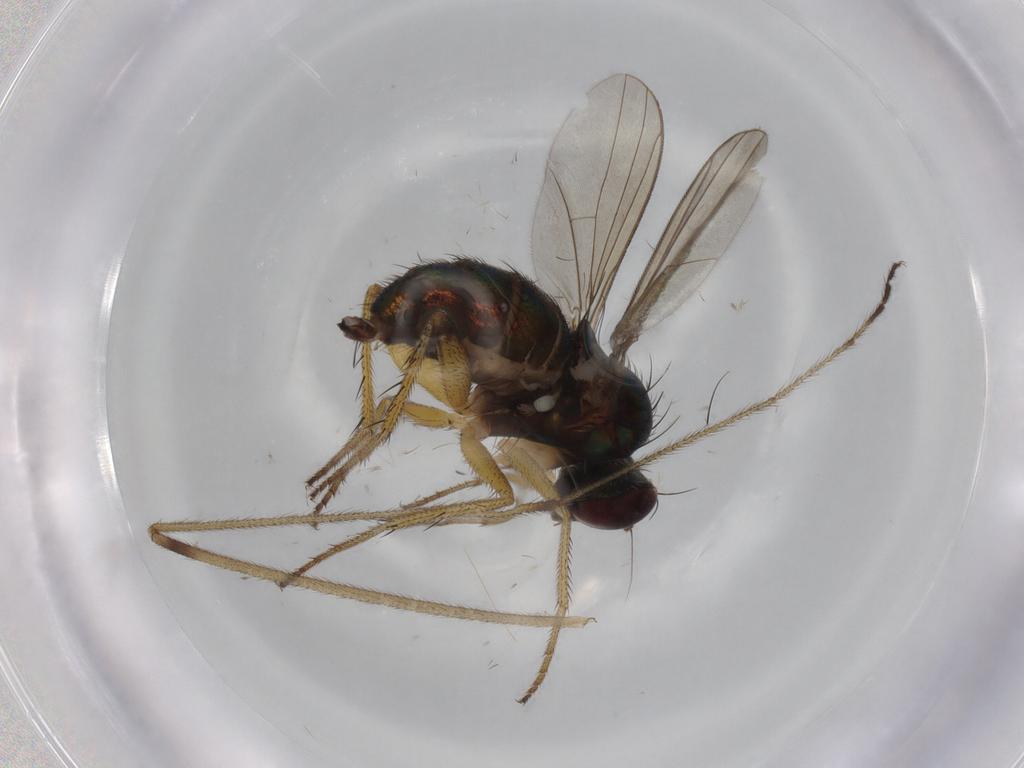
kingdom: Animalia
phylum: Arthropoda
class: Insecta
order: Diptera
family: Dolichopodidae
